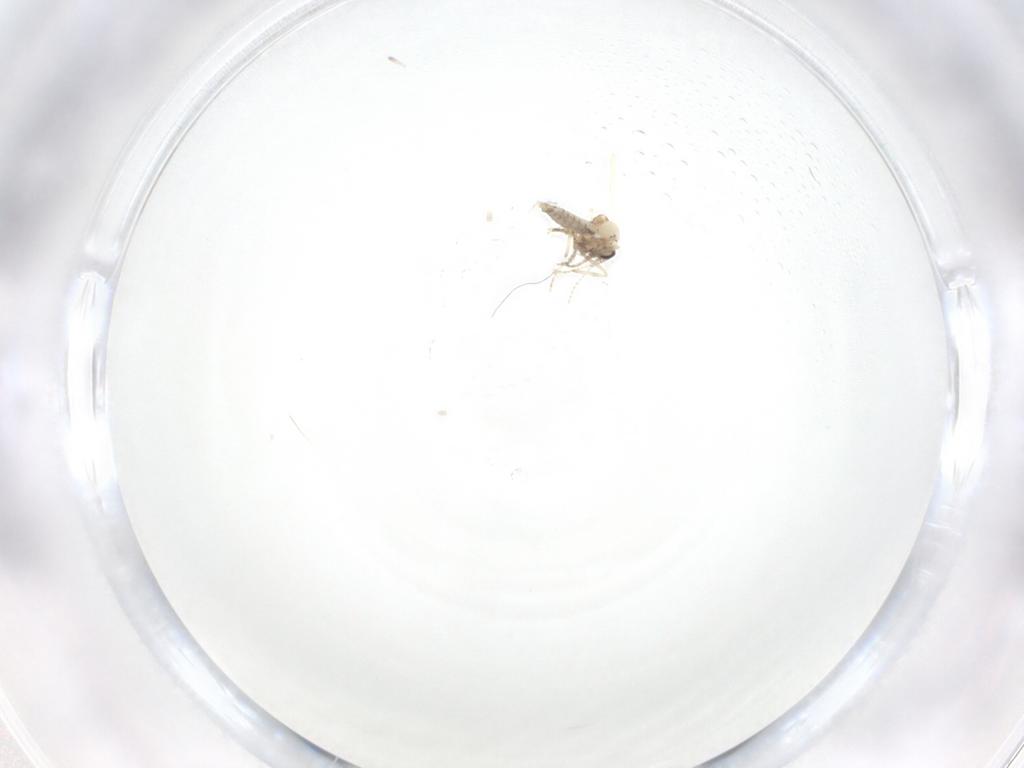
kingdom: Animalia
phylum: Arthropoda
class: Insecta
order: Diptera
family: Ceratopogonidae
